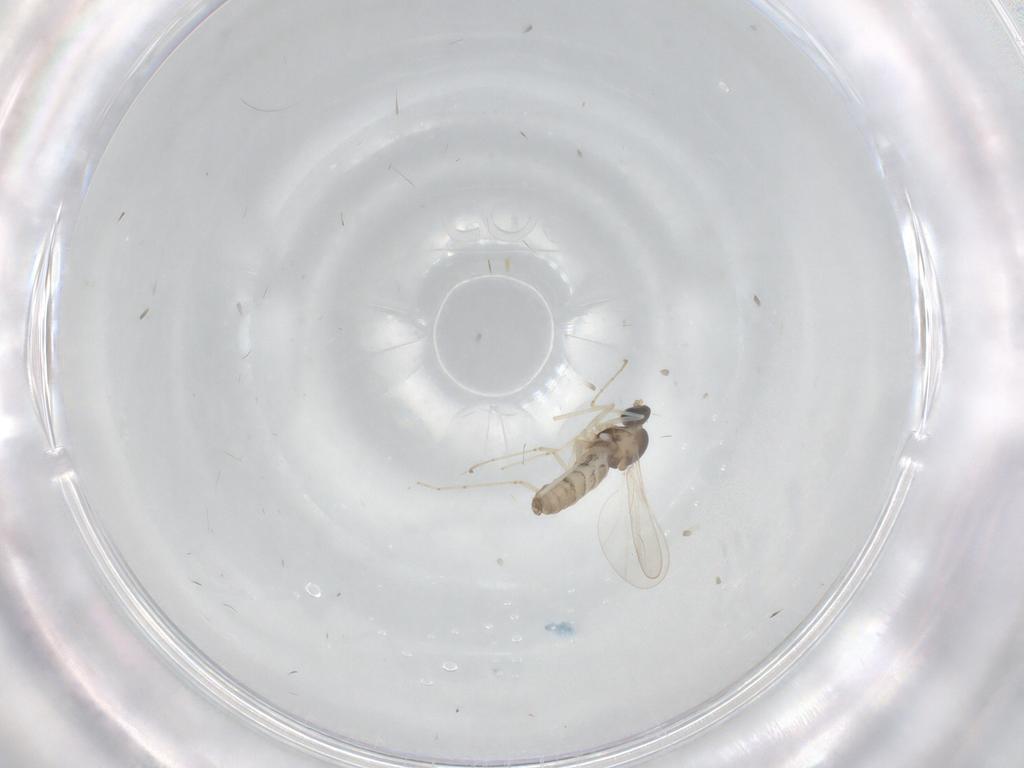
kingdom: Animalia
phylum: Arthropoda
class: Insecta
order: Diptera
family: Cecidomyiidae
